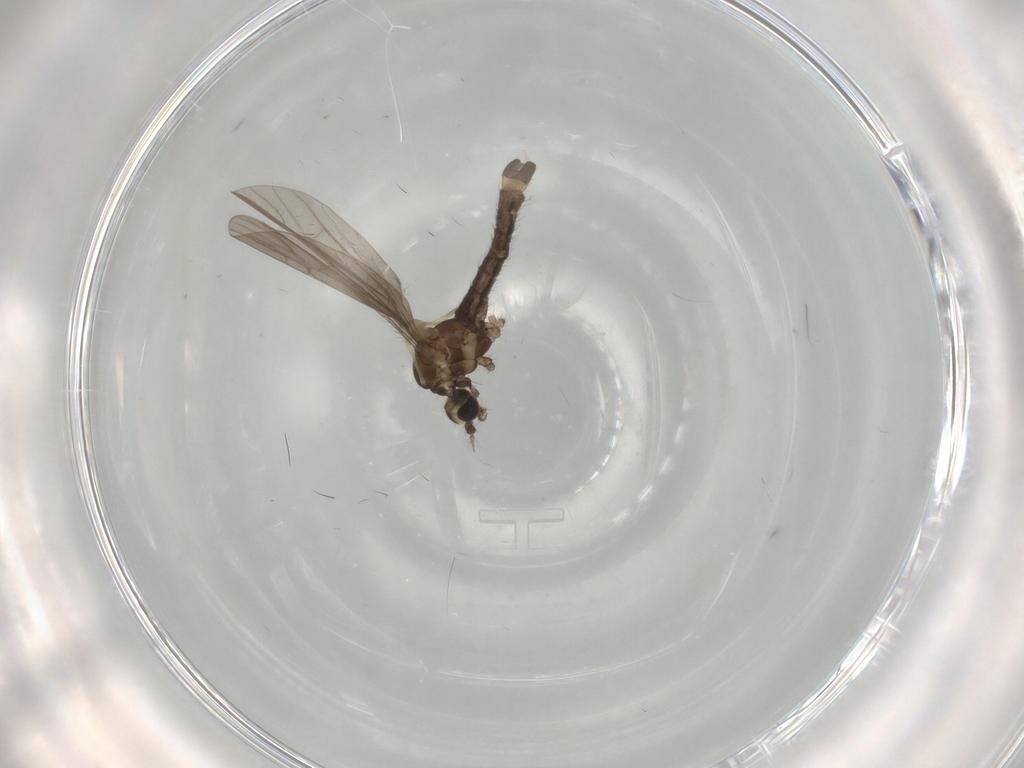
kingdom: Animalia
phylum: Arthropoda
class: Insecta
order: Diptera
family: Limoniidae
